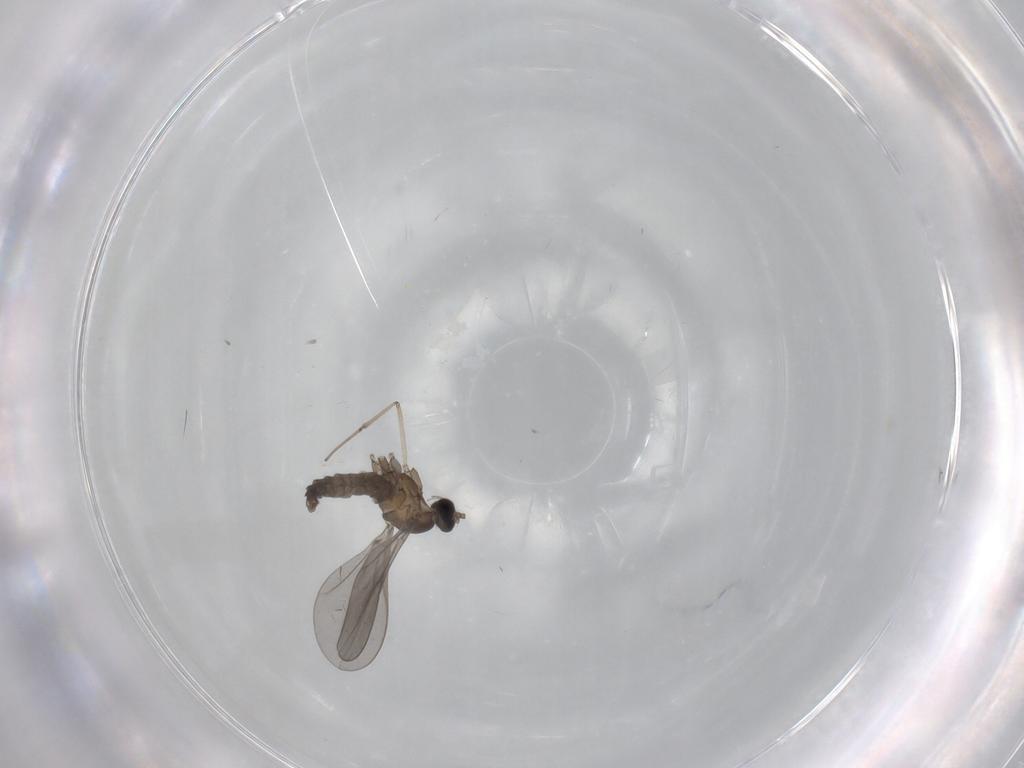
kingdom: Animalia
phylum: Arthropoda
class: Insecta
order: Diptera
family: Cecidomyiidae
